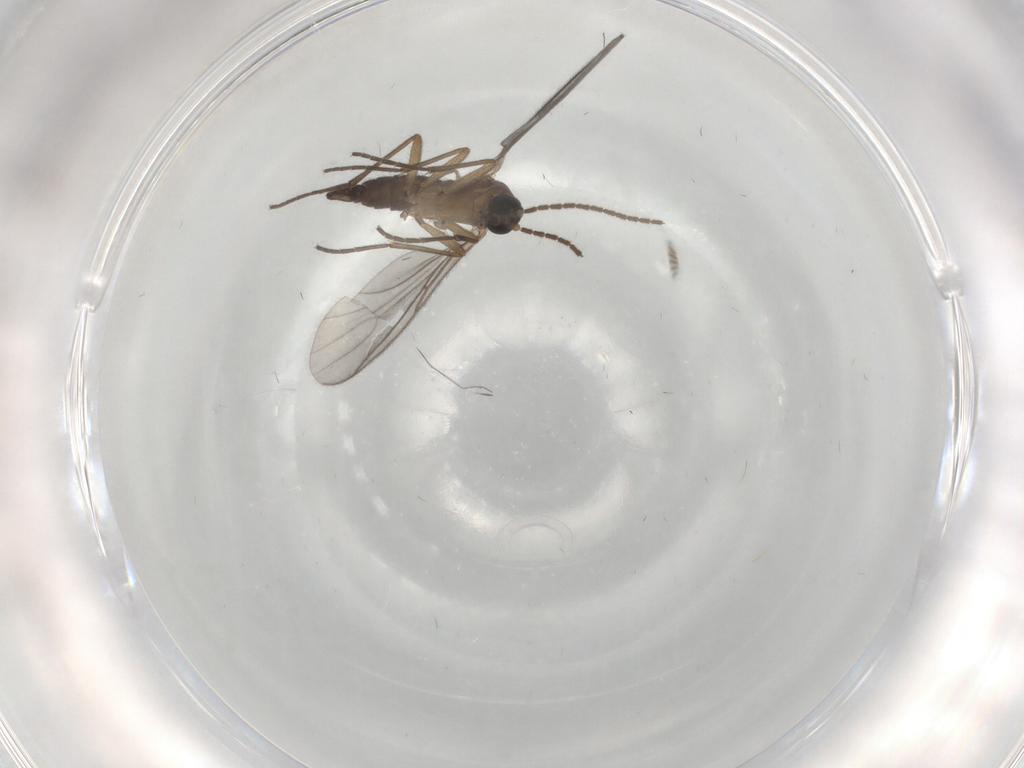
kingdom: Animalia
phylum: Arthropoda
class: Insecta
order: Diptera
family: Sciaridae
